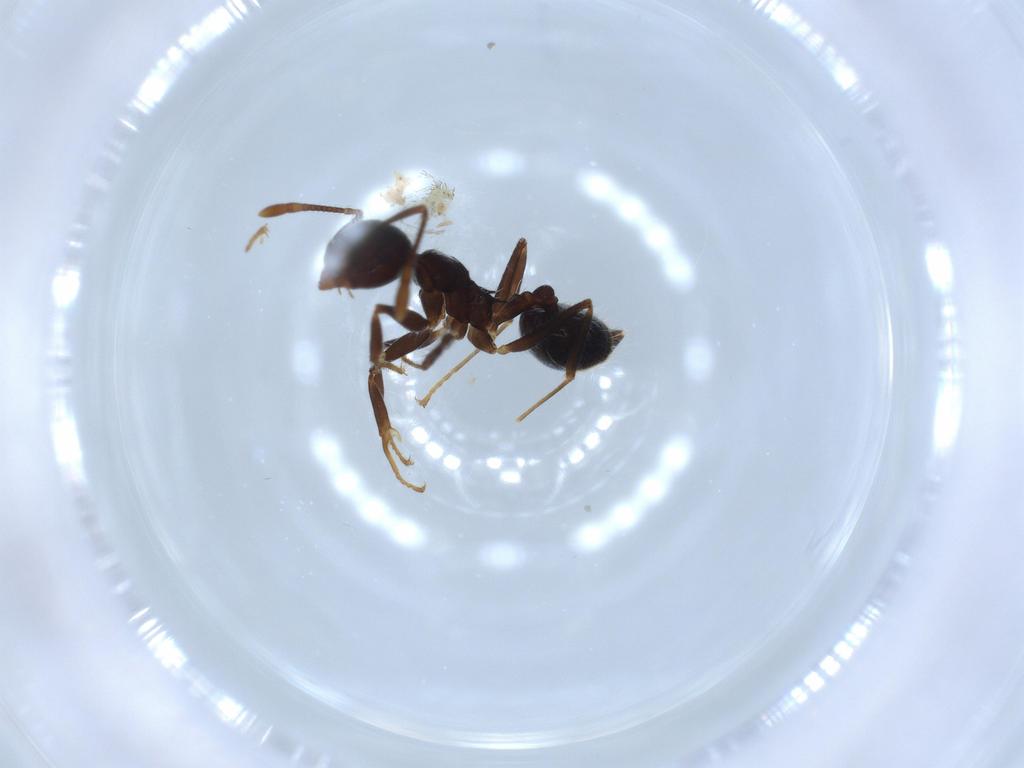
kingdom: Animalia
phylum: Arthropoda
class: Insecta
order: Hymenoptera
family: Formicidae
